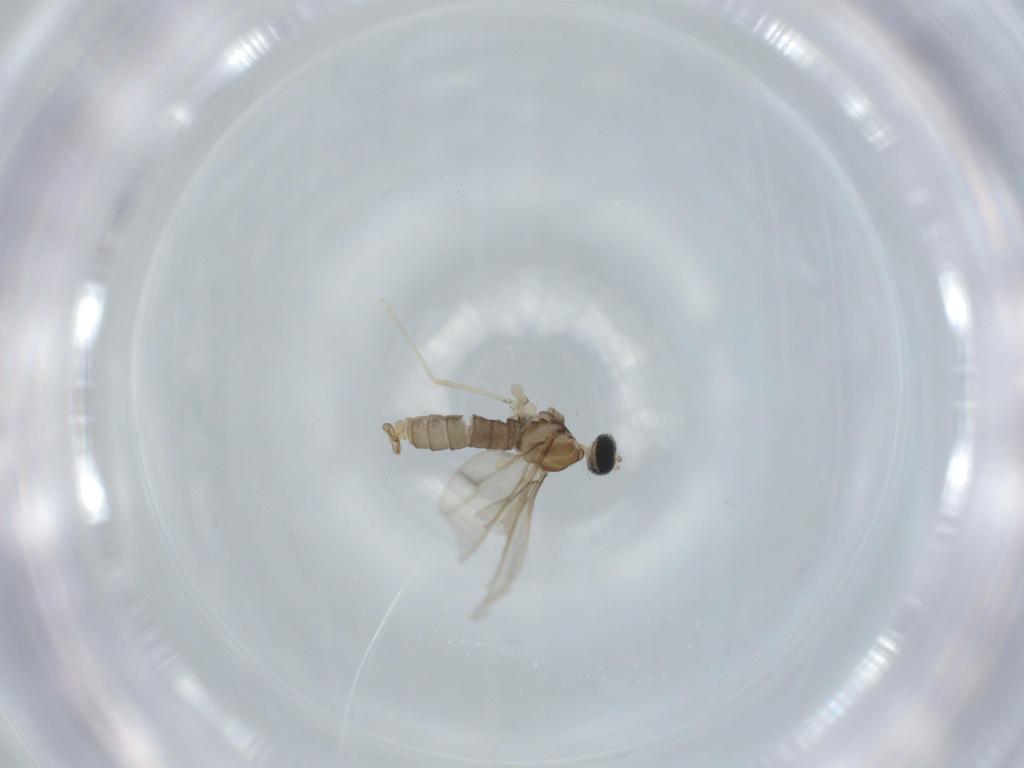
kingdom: Animalia
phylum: Arthropoda
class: Insecta
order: Diptera
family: Cecidomyiidae
